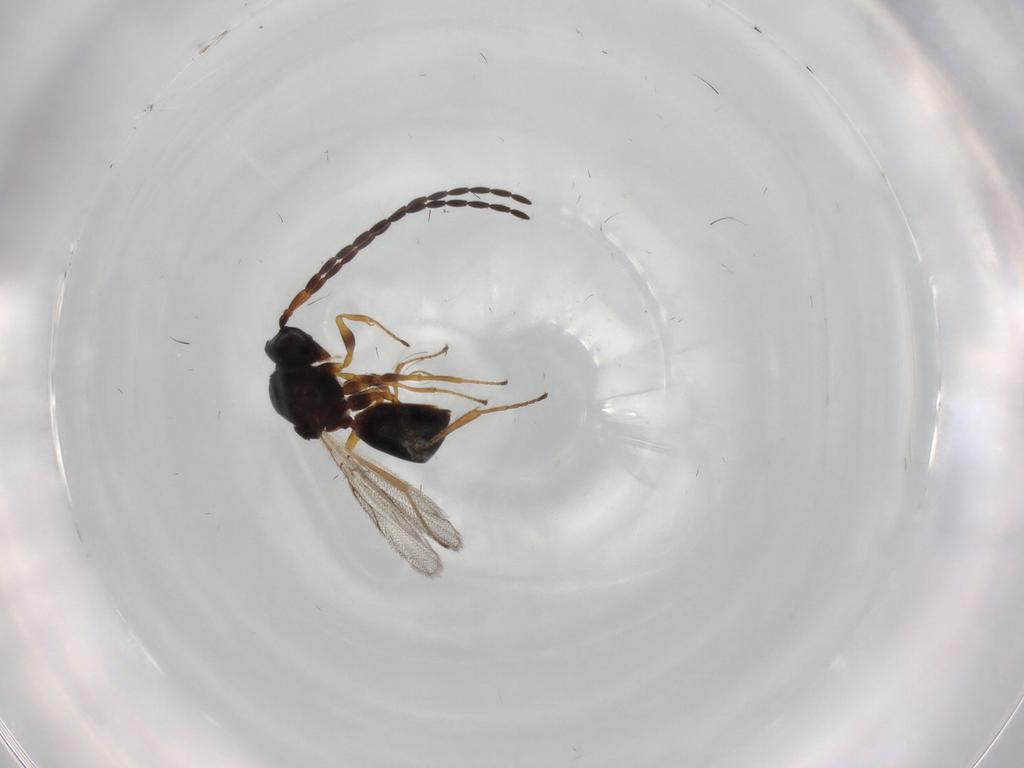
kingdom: Animalia
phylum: Arthropoda
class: Insecta
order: Hymenoptera
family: Figitidae
